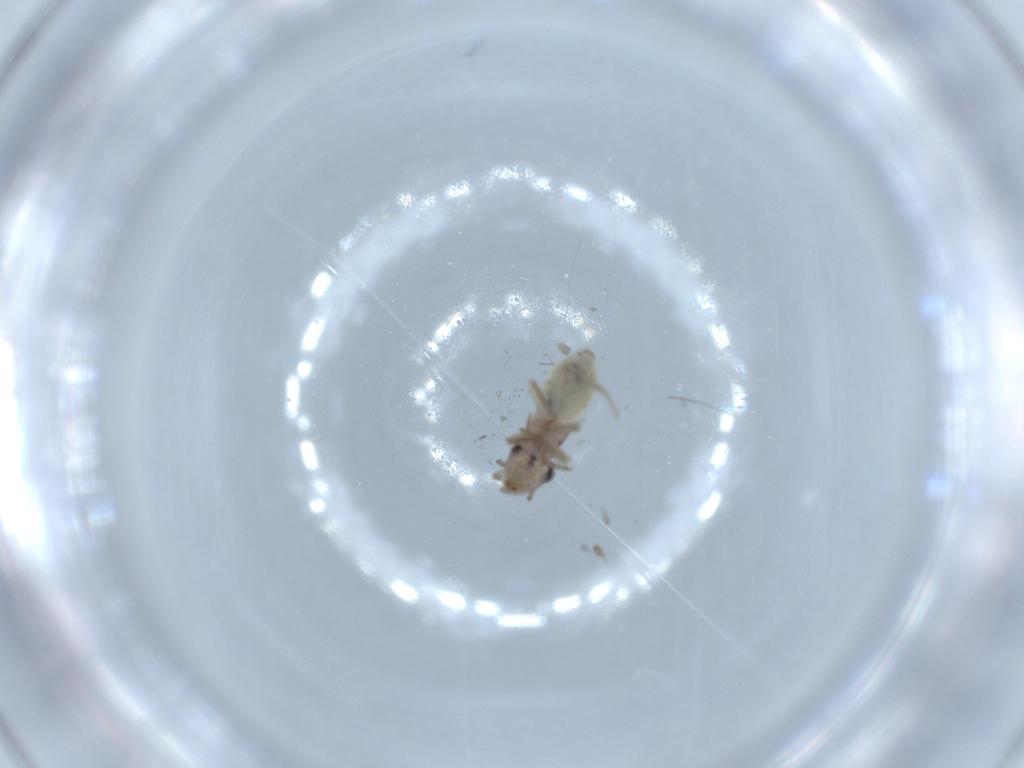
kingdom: Animalia
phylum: Arthropoda
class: Insecta
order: Psocodea
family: Liposcelididae
